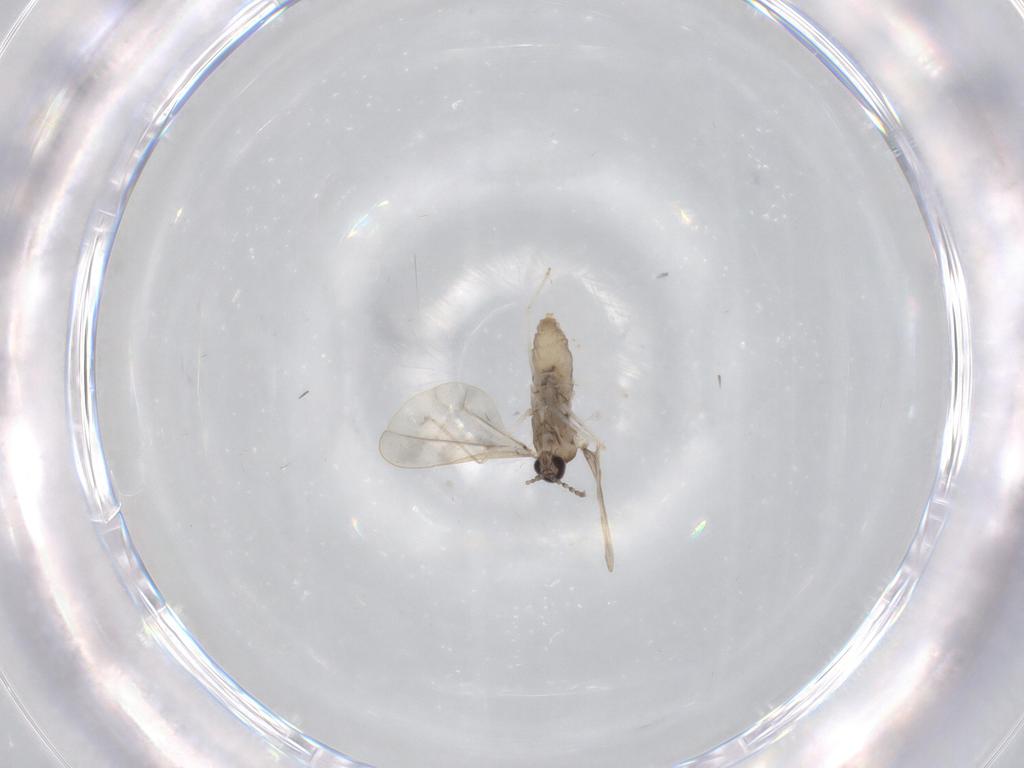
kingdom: Animalia
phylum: Arthropoda
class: Insecta
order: Diptera
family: Cecidomyiidae
